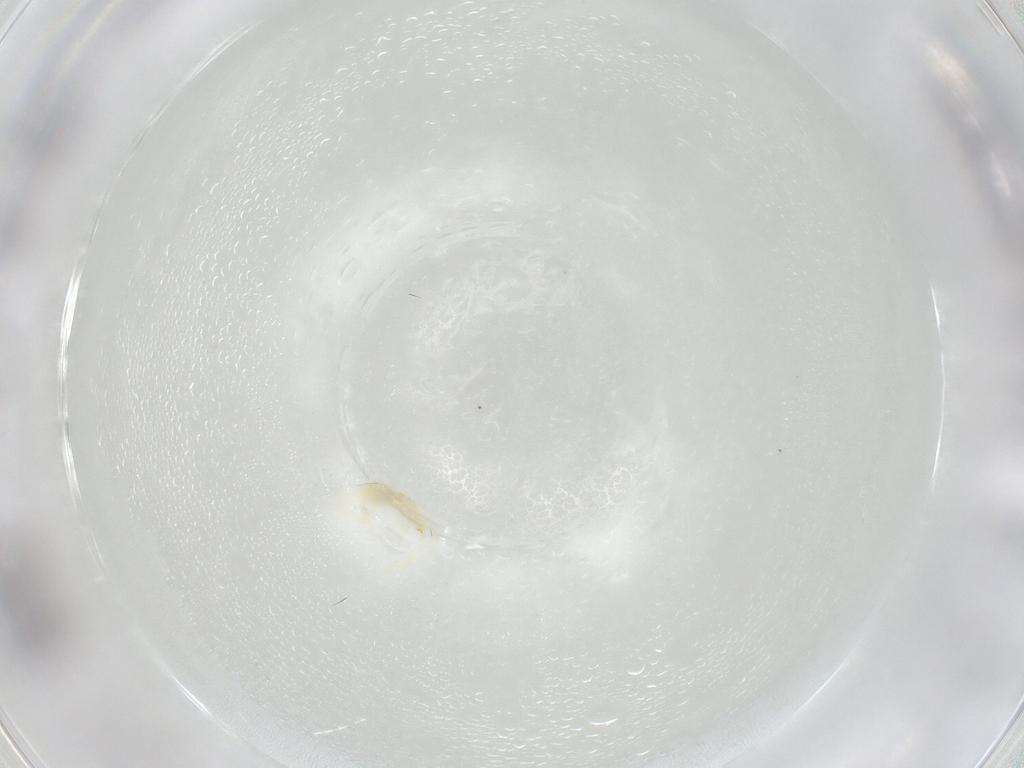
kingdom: Animalia
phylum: Arthropoda
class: Arachnida
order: Trombidiformes
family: Erythraeidae
